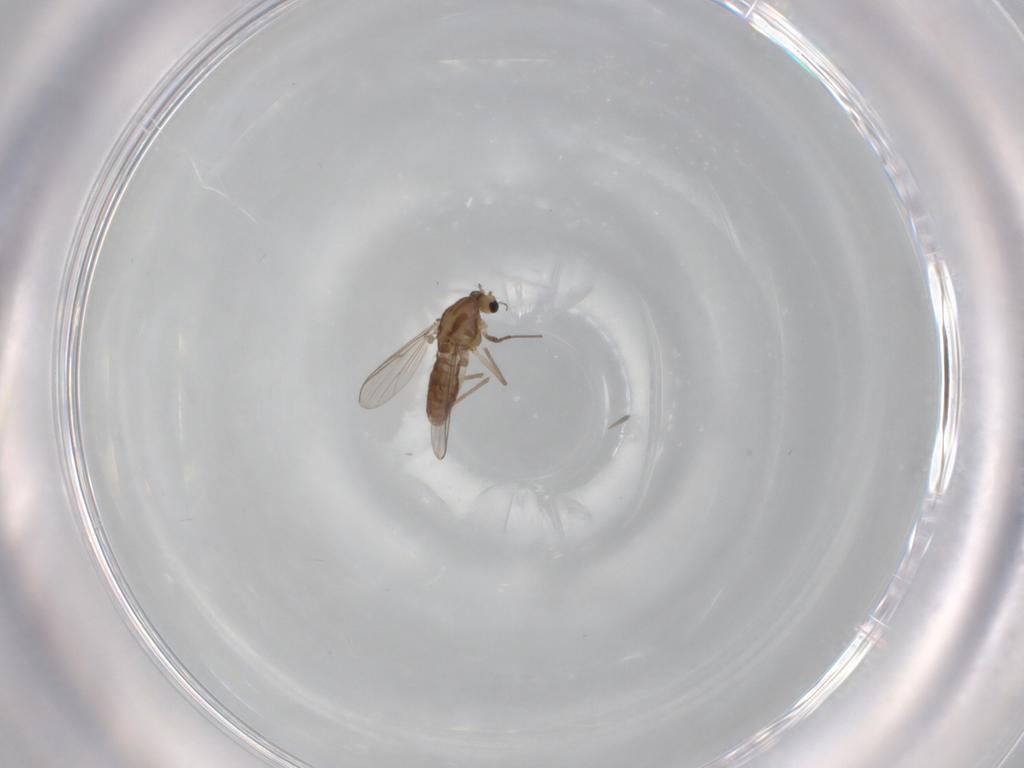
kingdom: Animalia
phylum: Arthropoda
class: Insecta
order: Diptera
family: Chironomidae
